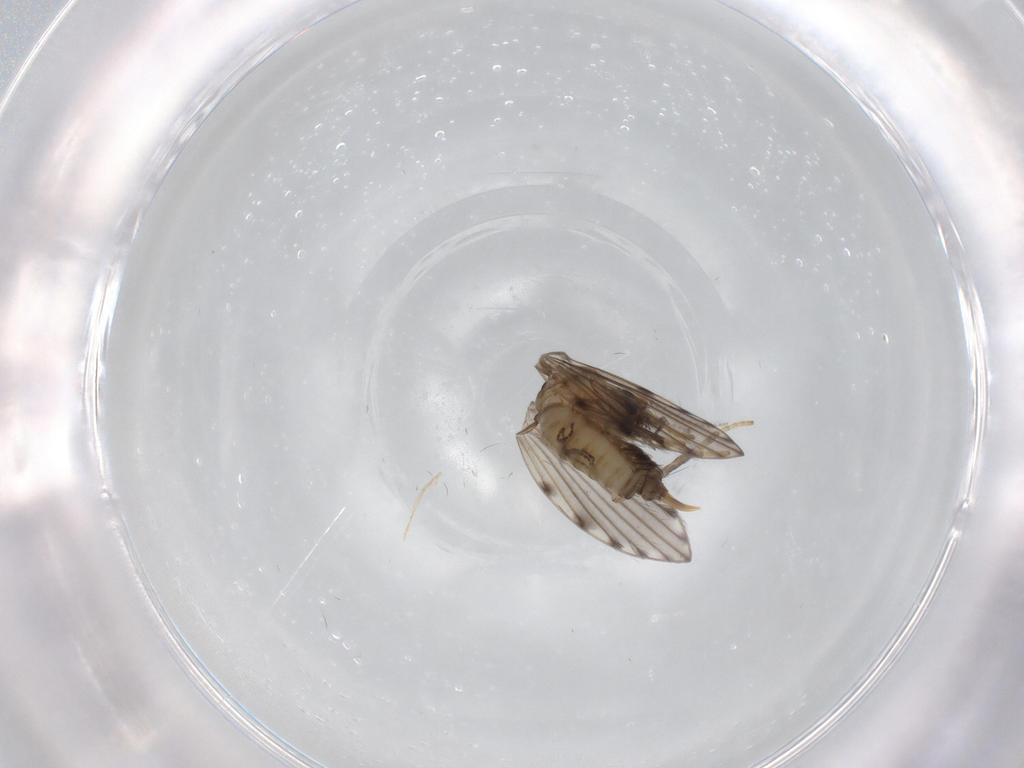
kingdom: Animalia
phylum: Arthropoda
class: Insecta
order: Diptera
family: Psychodidae
